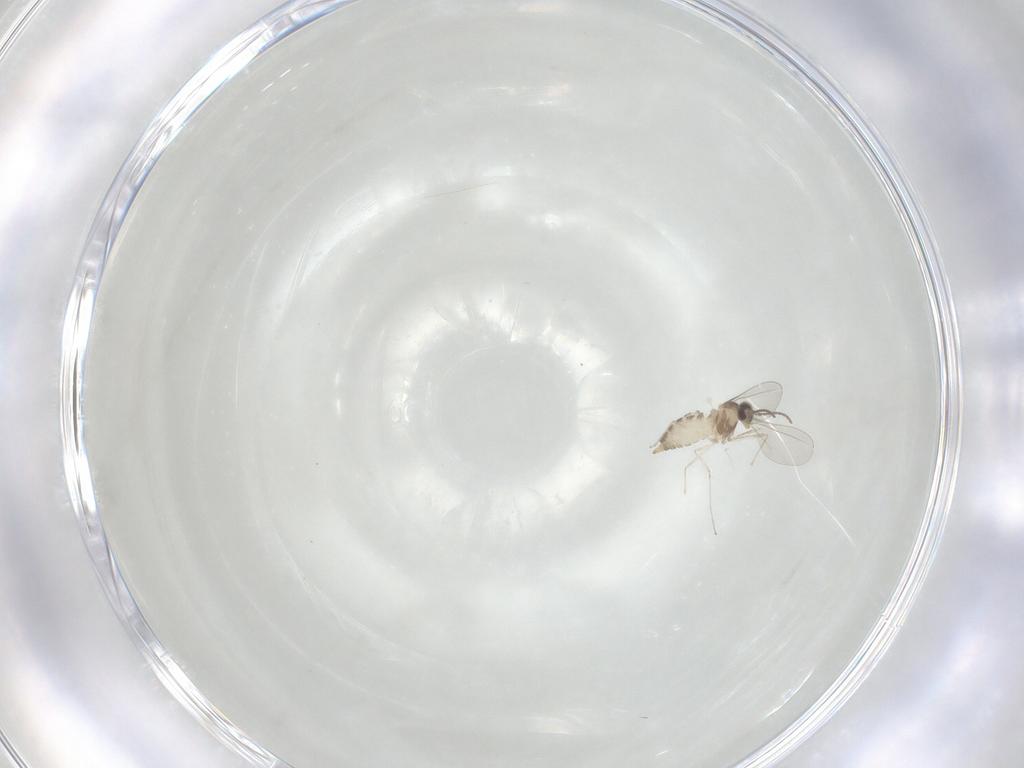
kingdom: Animalia
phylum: Arthropoda
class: Insecta
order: Diptera
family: Cecidomyiidae
